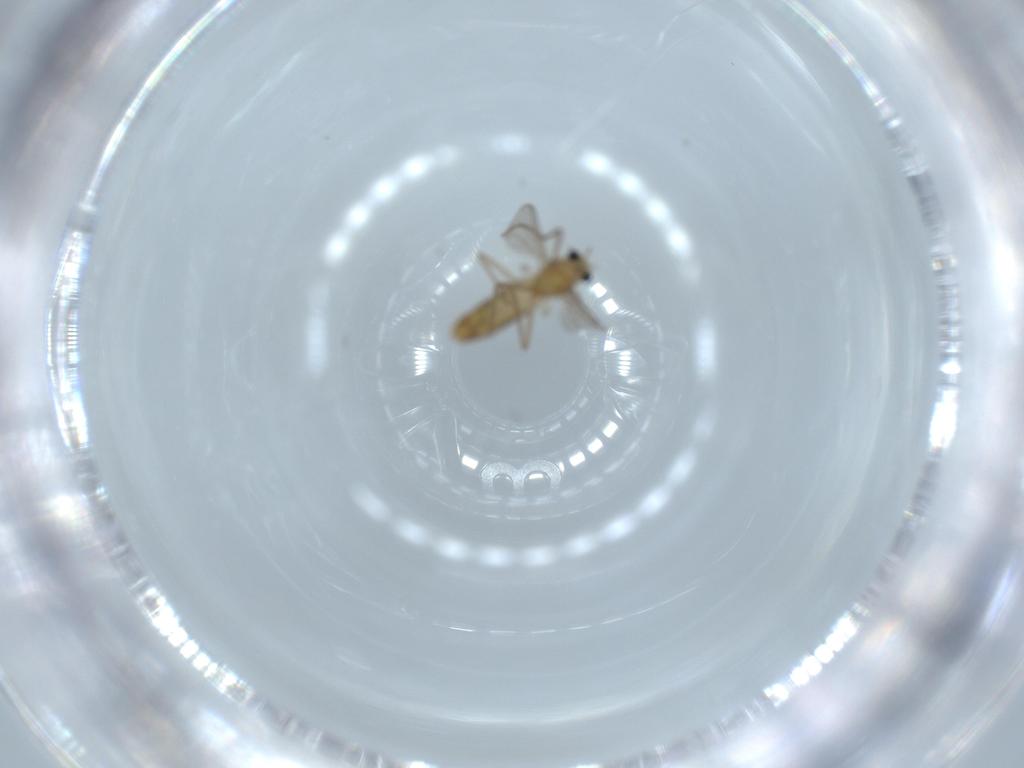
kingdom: Animalia
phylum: Arthropoda
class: Insecta
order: Diptera
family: Chironomidae
